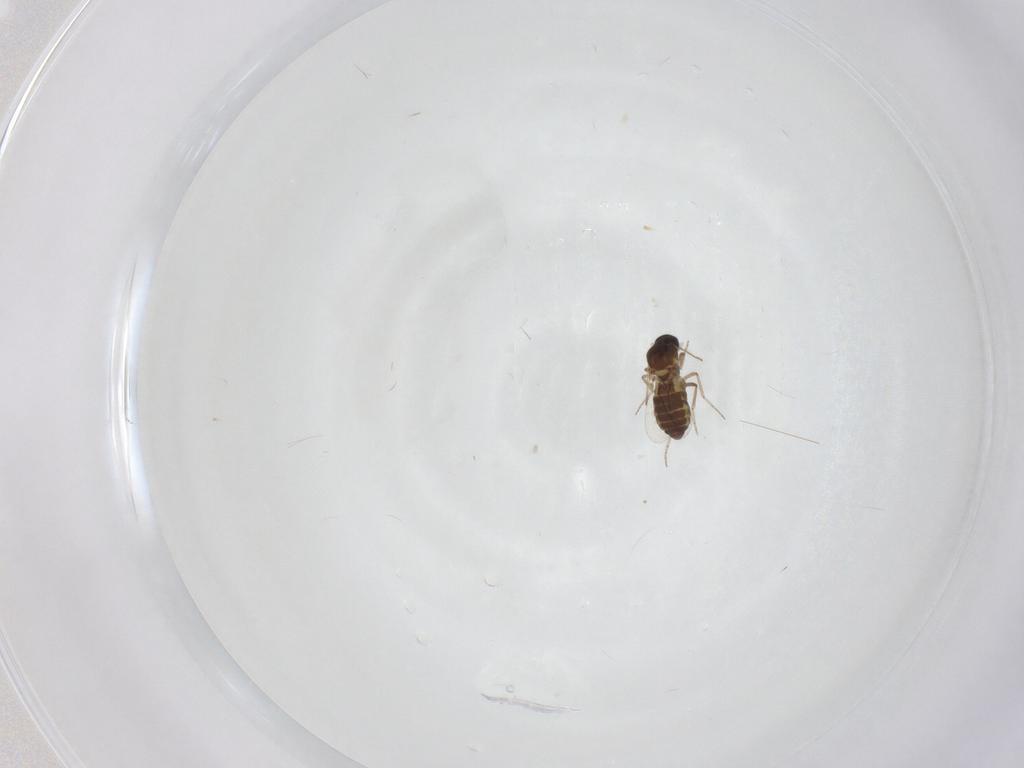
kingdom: Animalia
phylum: Arthropoda
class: Insecta
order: Diptera
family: Ceratopogonidae
